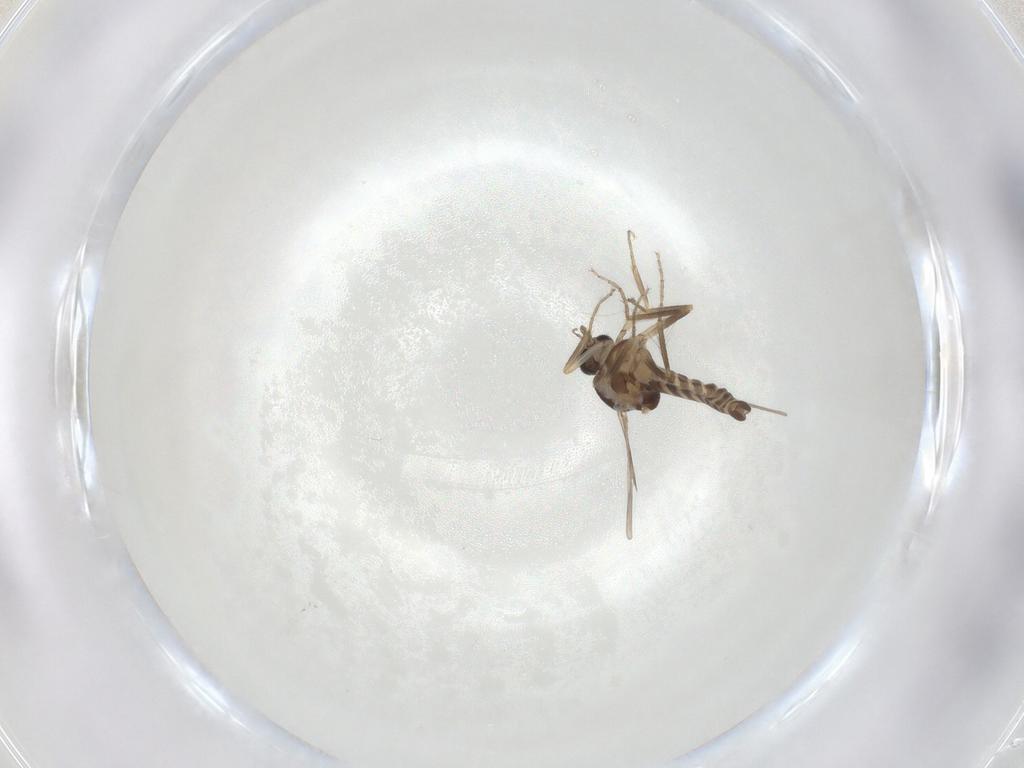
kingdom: Animalia
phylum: Arthropoda
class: Insecta
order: Diptera
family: Ceratopogonidae
